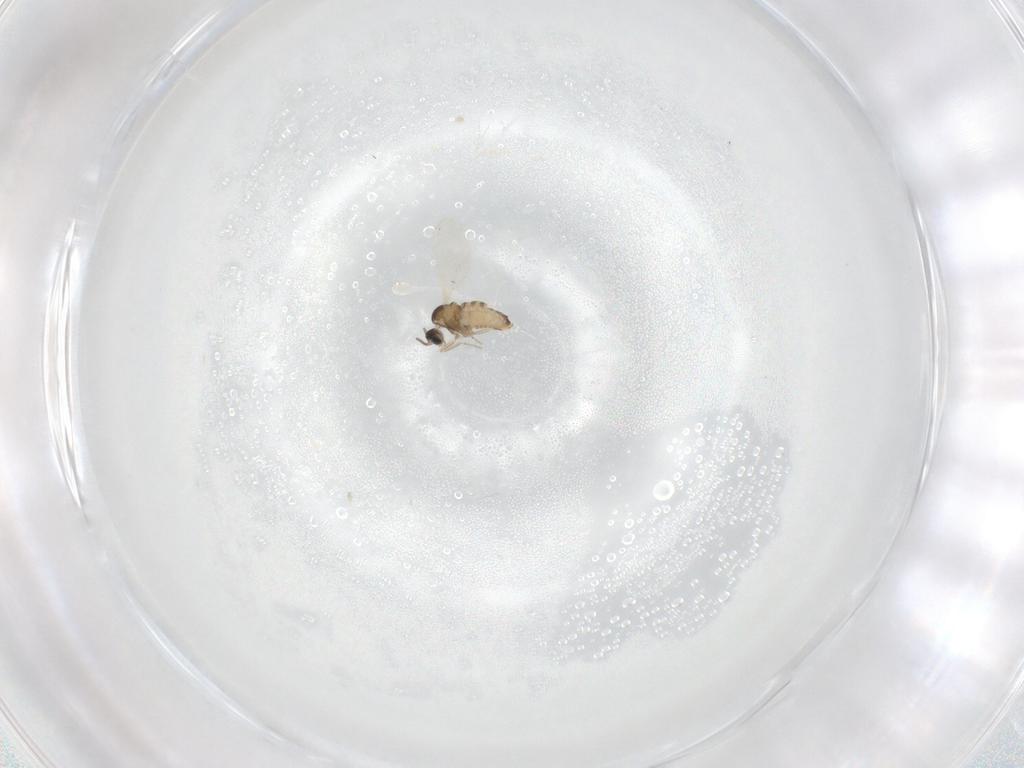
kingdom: Animalia
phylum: Arthropoda
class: Insecta
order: Diptera
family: Cecidomyiidae
